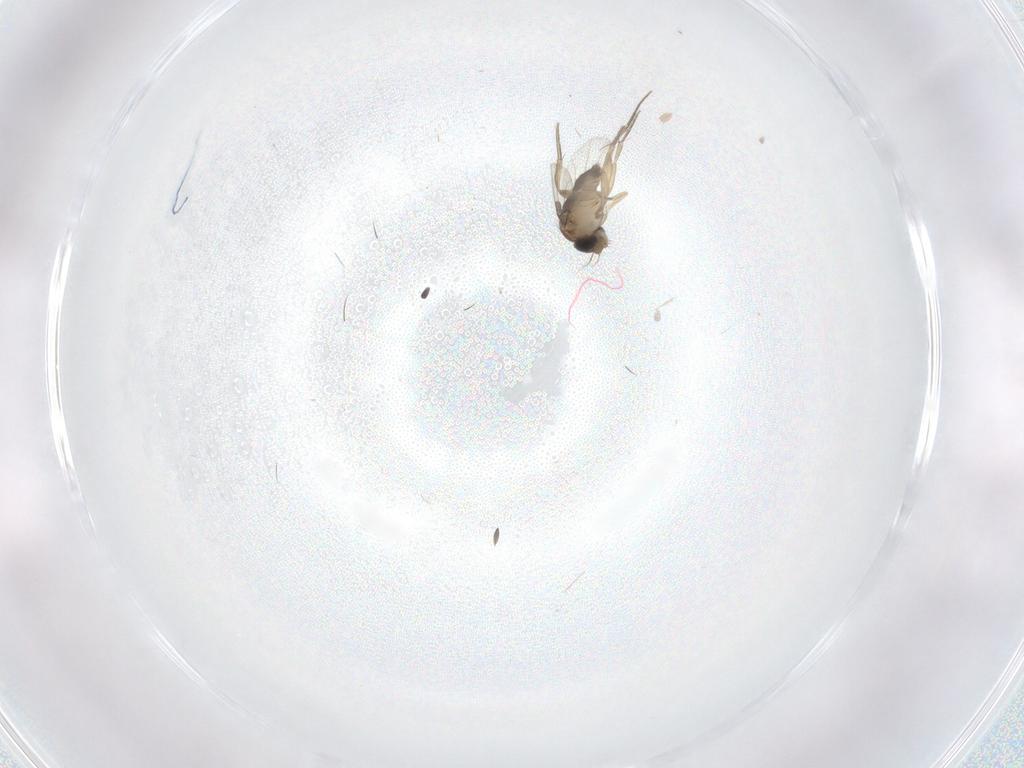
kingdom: Animalia
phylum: Arthropoda
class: Insecta
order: Diptera
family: Phoridae
